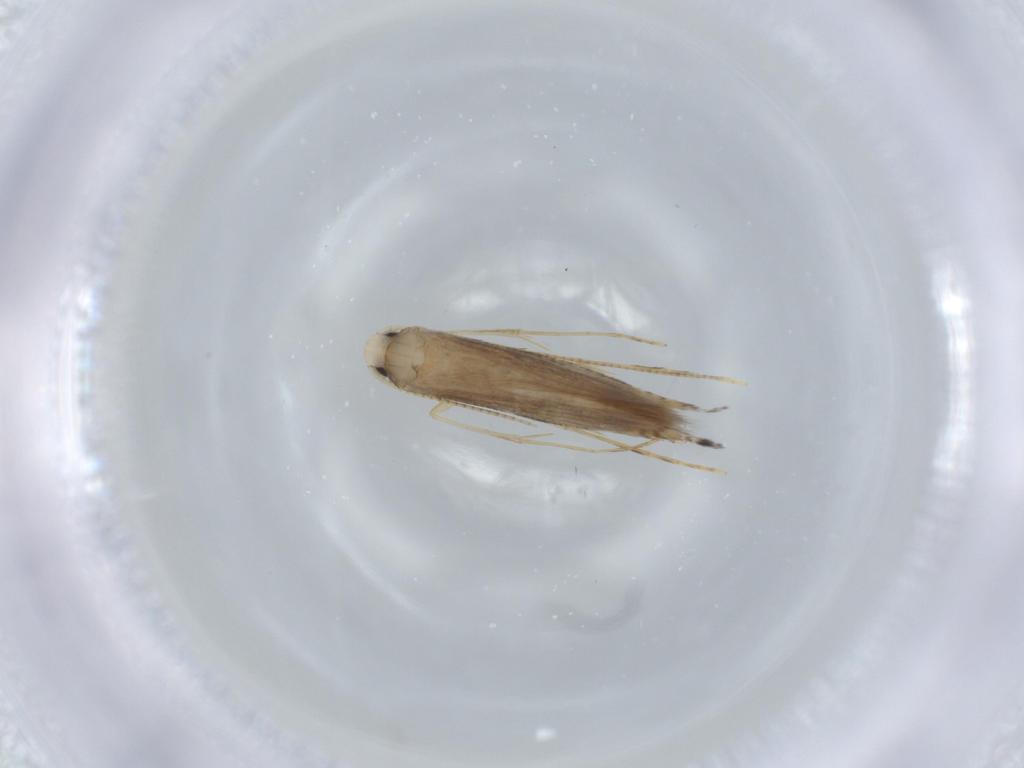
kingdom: Animalia
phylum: Arthropoda
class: Insecta
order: Lepidoptera
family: Gracillariidae
